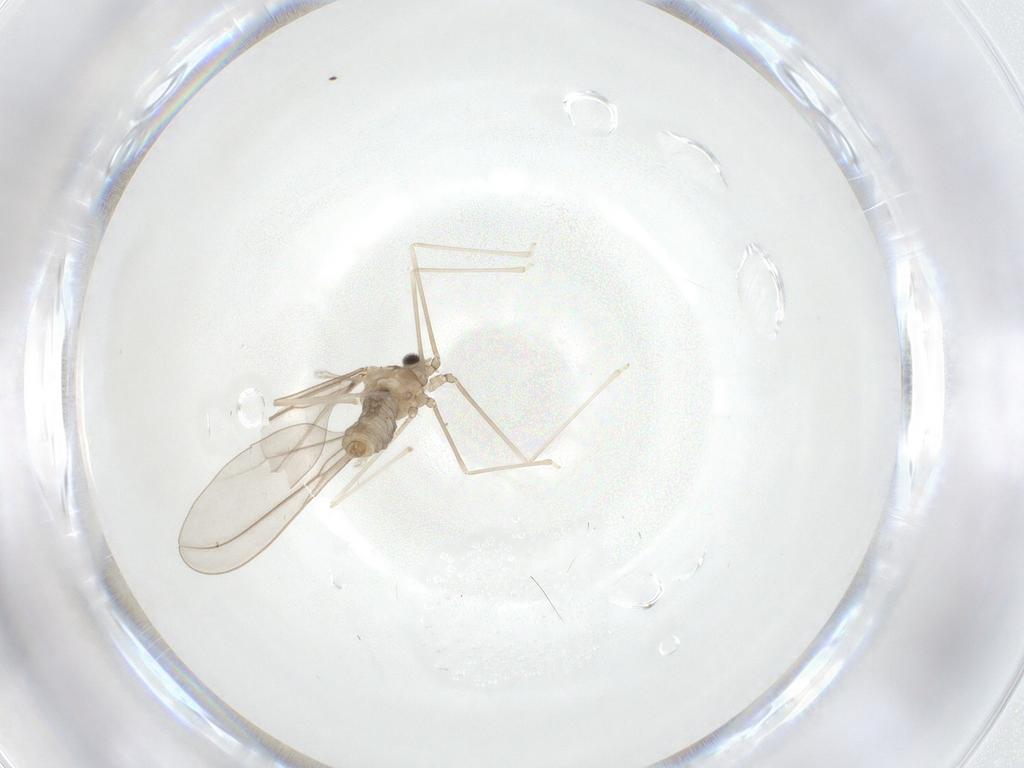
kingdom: Animalia
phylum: Arthropoda
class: Insecta
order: Diptera
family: Cecidomyiidae
